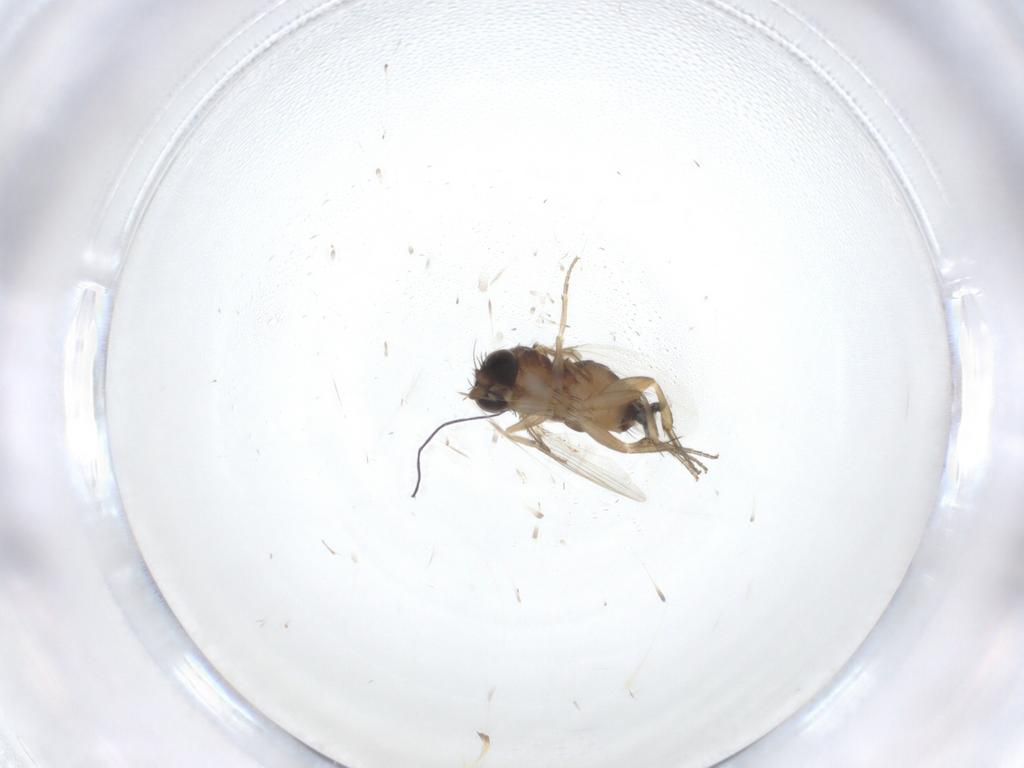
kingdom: Animalia
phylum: Arthropoda
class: Insecta
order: Diptera
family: Phoridae
